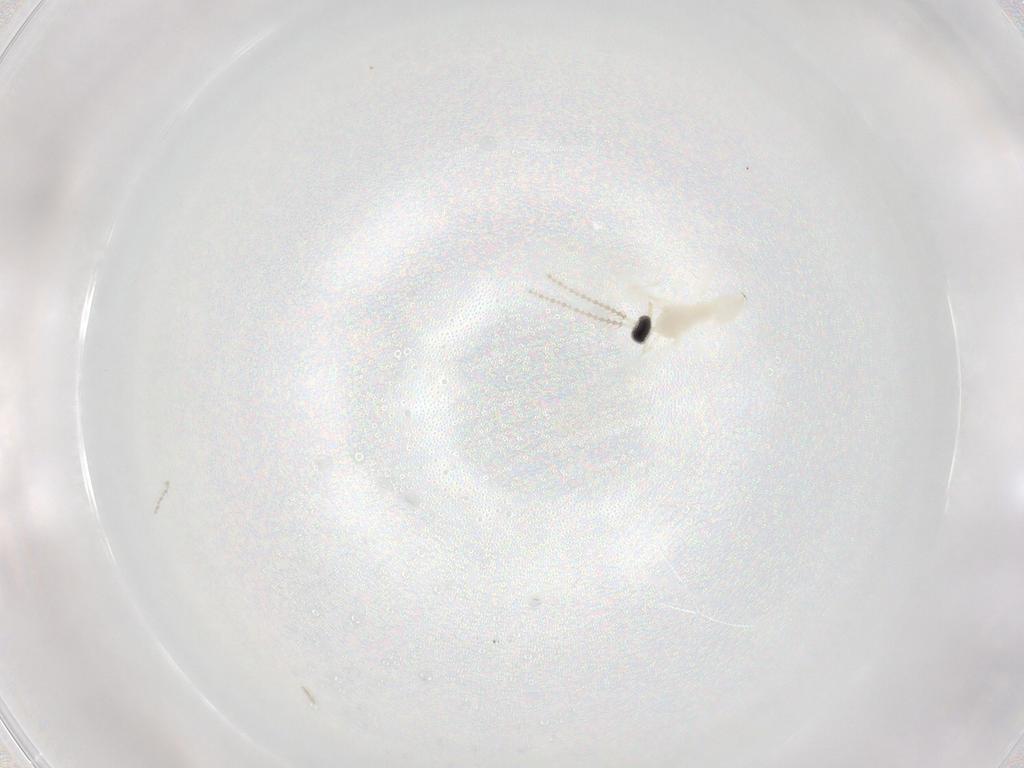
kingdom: Animalia
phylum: Arthropoda
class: Insecta
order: Diptera
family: Cecidomyiidae
